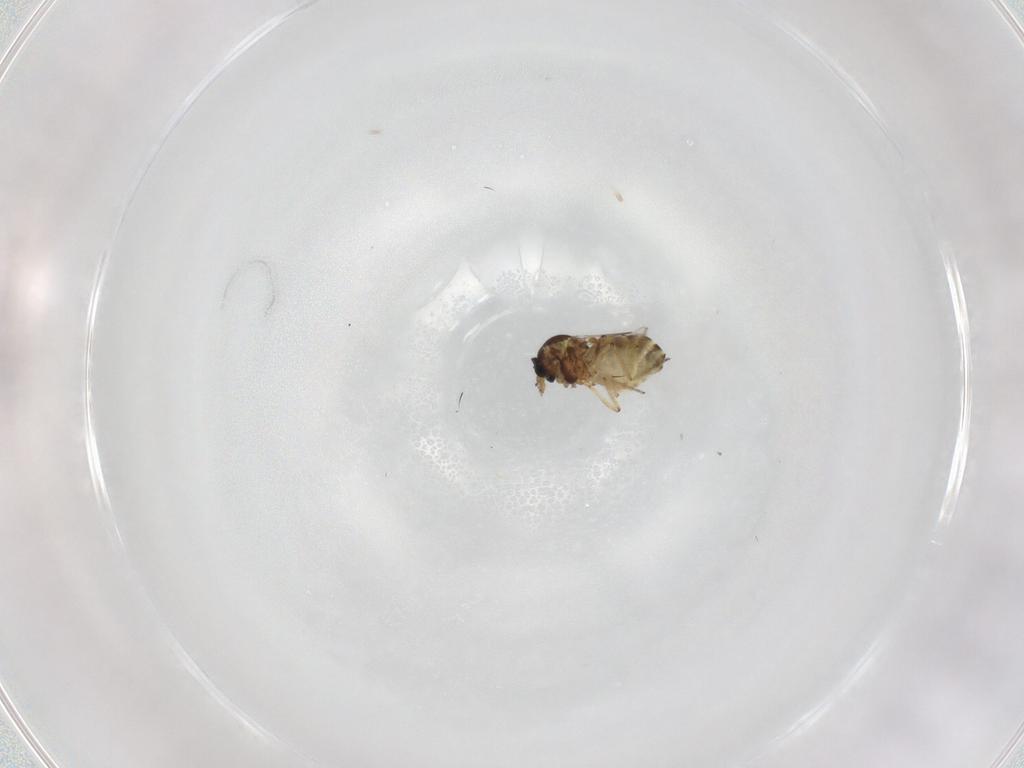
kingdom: Animalia
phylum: Arthropoda
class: Insecta
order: Diptera
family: Ceratopogonidae
